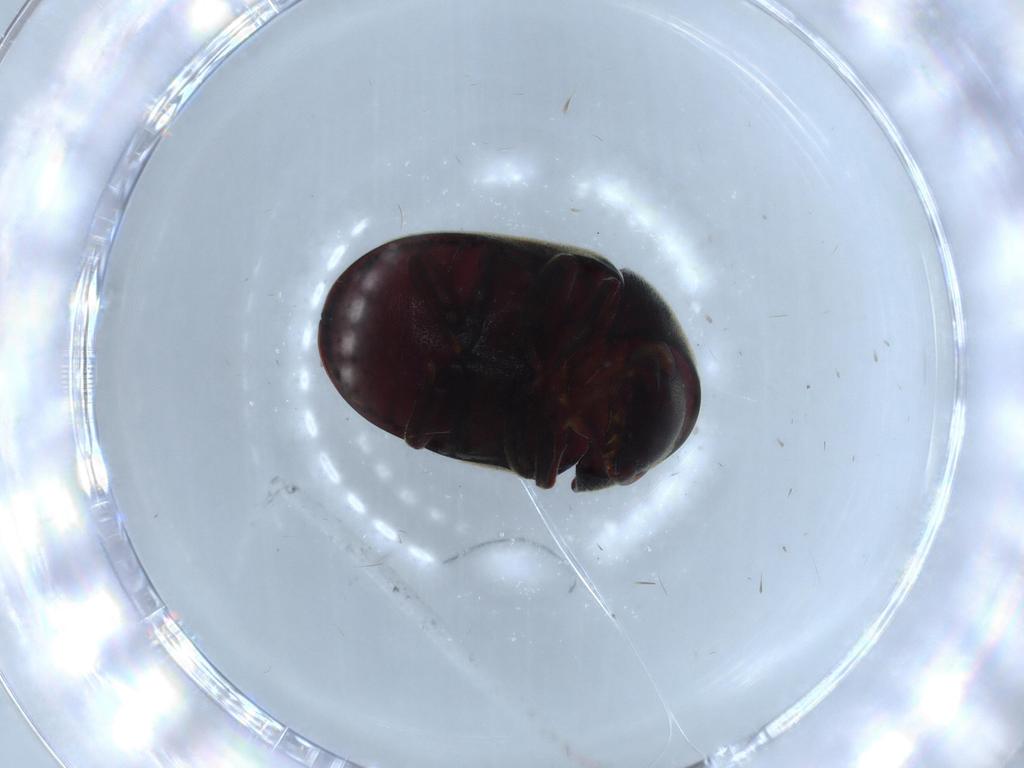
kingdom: Animalia
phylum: Arthropoda
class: Insecta
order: Coleoptera
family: Ptinidae
